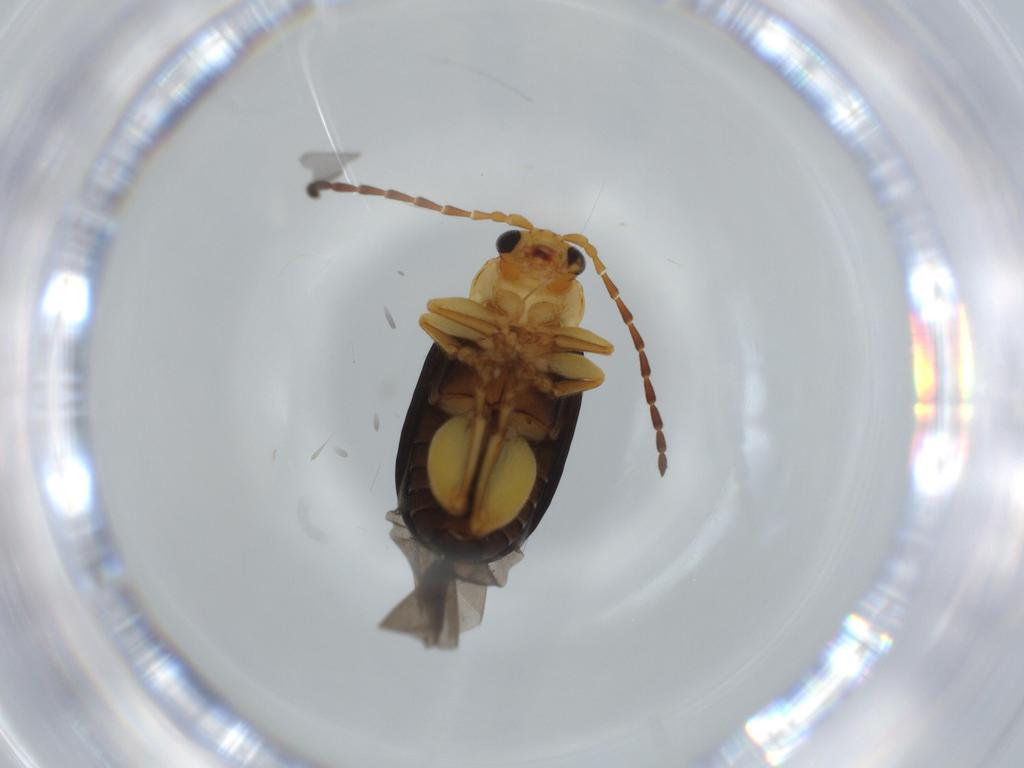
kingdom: Animalia
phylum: Arthropoda
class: Insecta
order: Coleoptera
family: Chrysomelidae
